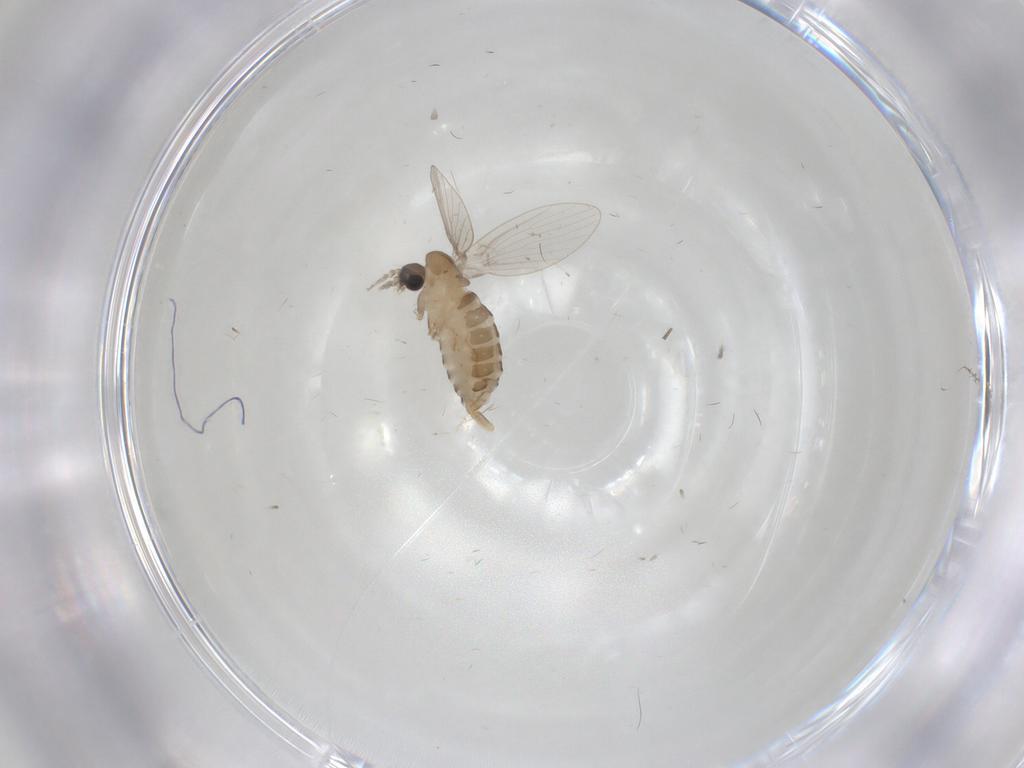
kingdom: Animalia
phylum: Arthropoda
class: Insecta
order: Diptera
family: Psychodidae
